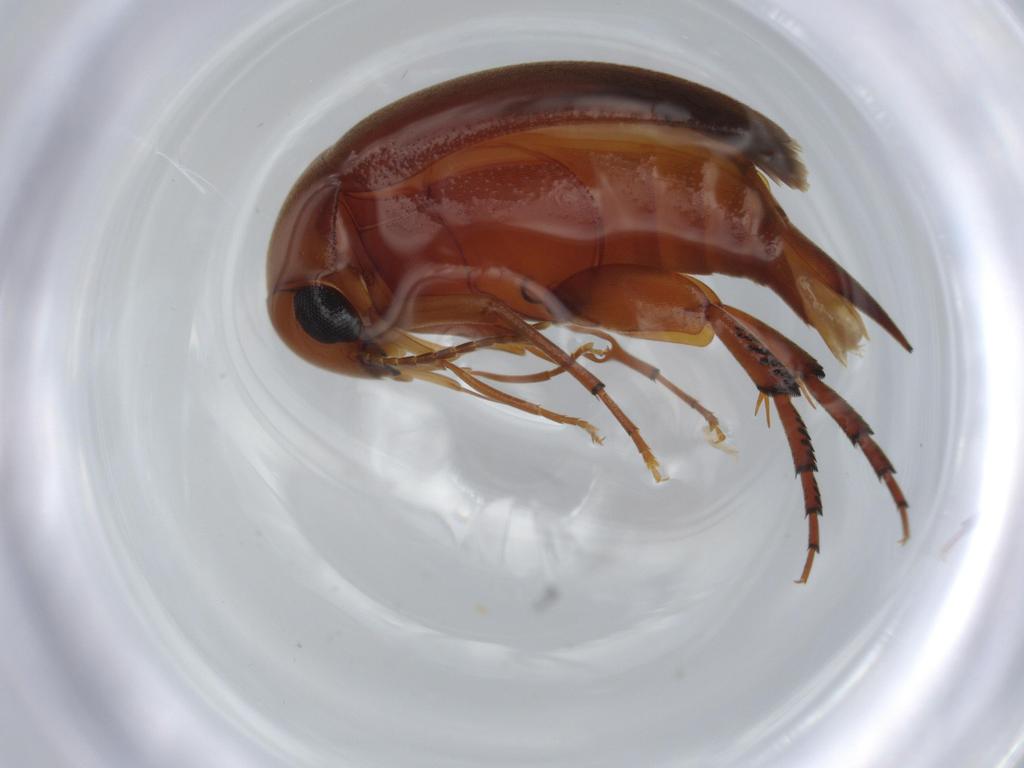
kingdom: Animalia
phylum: Arthropoda
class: Insecta
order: Coleoptera
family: Mordellidae
